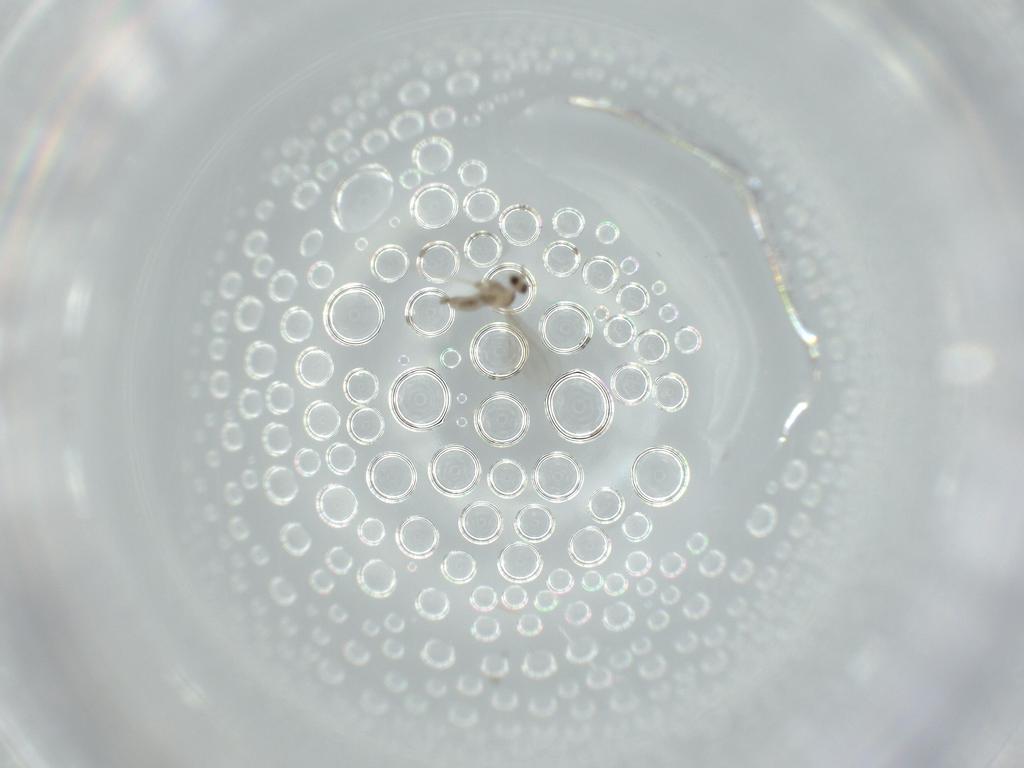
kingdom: Animalia
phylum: Arthropoda
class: Insecta
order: Diptera
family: Cecidomyiidae
